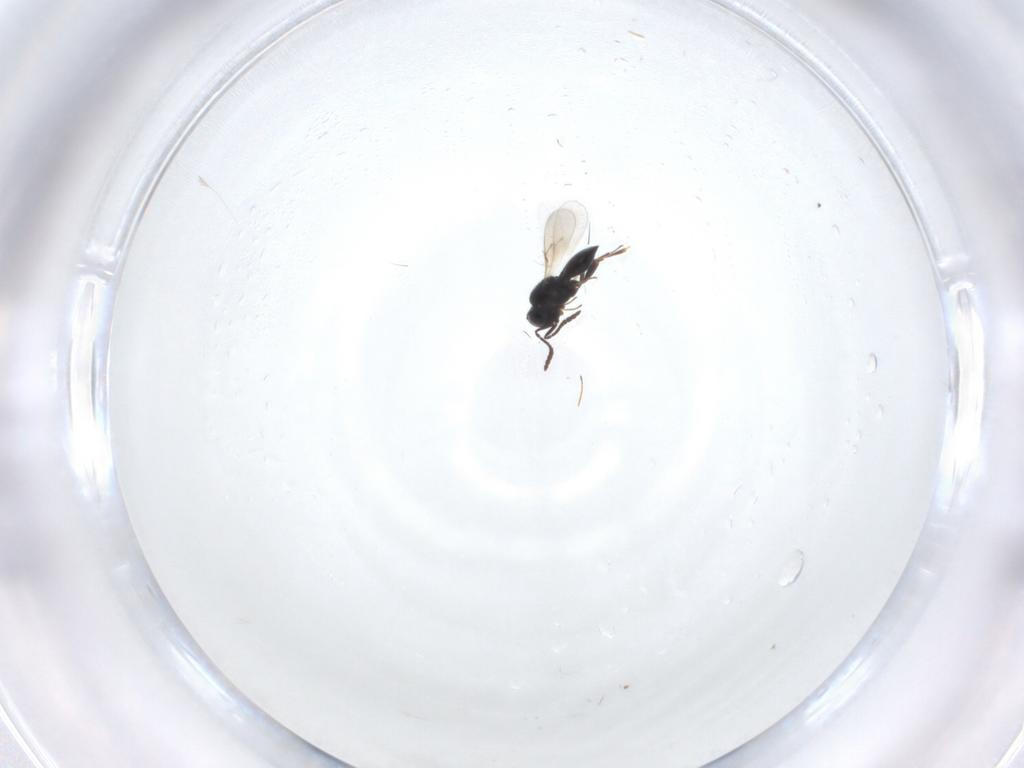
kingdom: Animalia
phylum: Arthropoda
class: Insecta
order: Hymenoptera
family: Scelionidae
